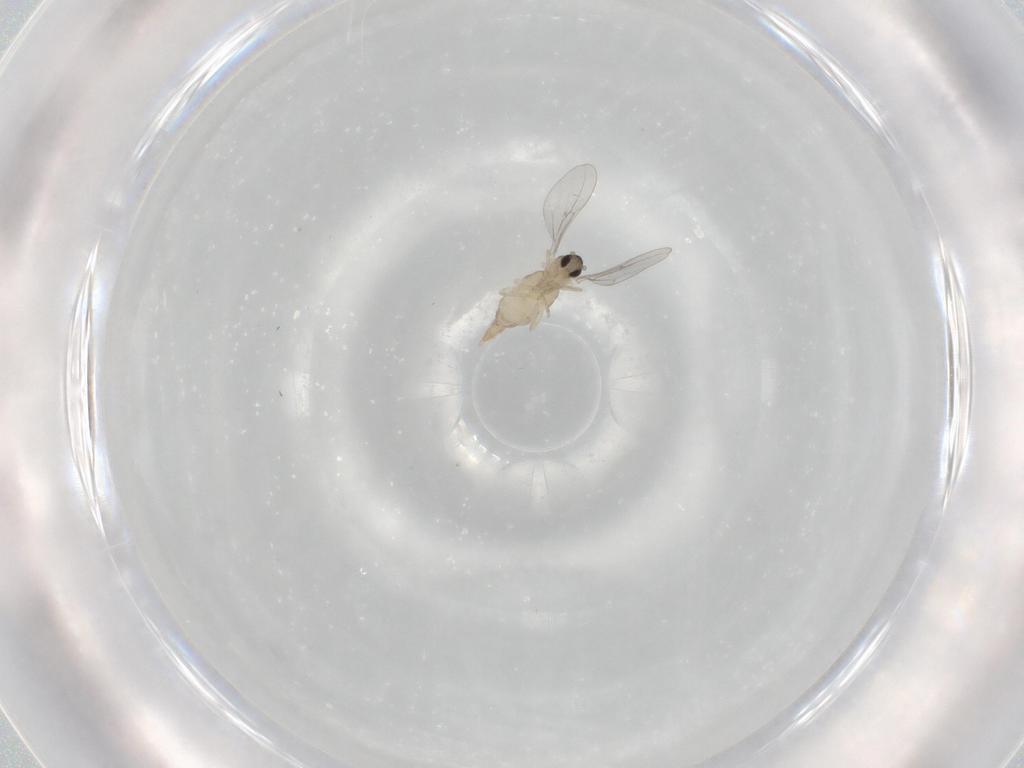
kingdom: Animalia
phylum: Arthropoda
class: Insecta
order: Diptera
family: Cecidomyiidae
